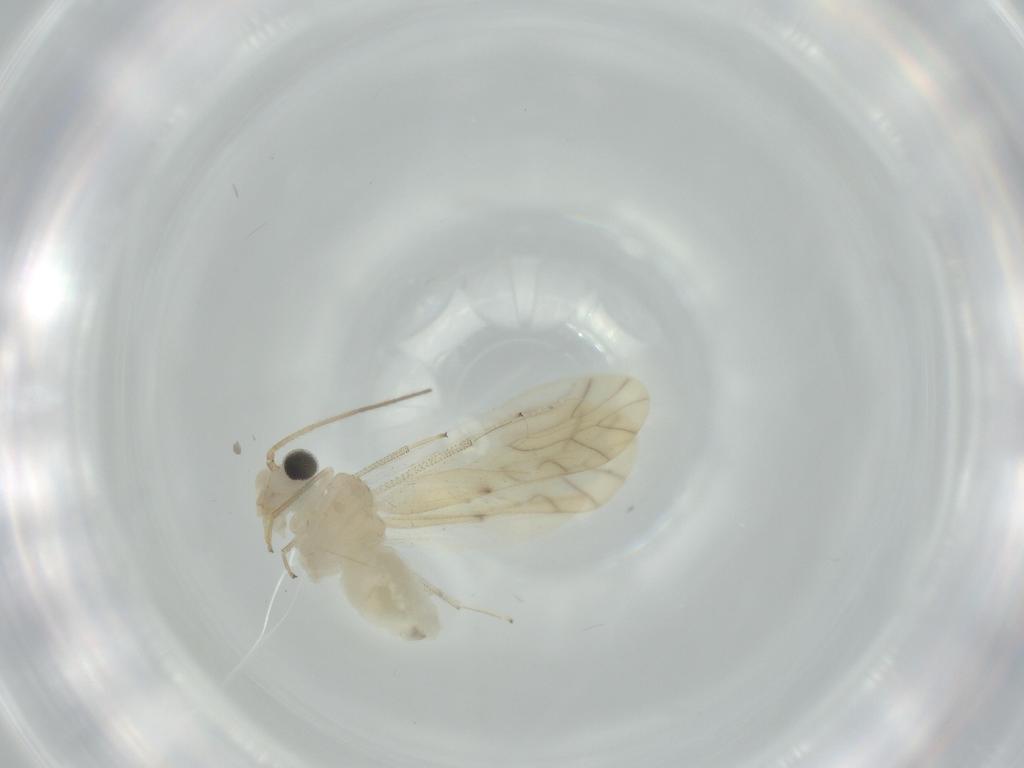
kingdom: Animalia
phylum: Arthropoda
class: Insecta
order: Psocodea
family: Caeciliusidae
